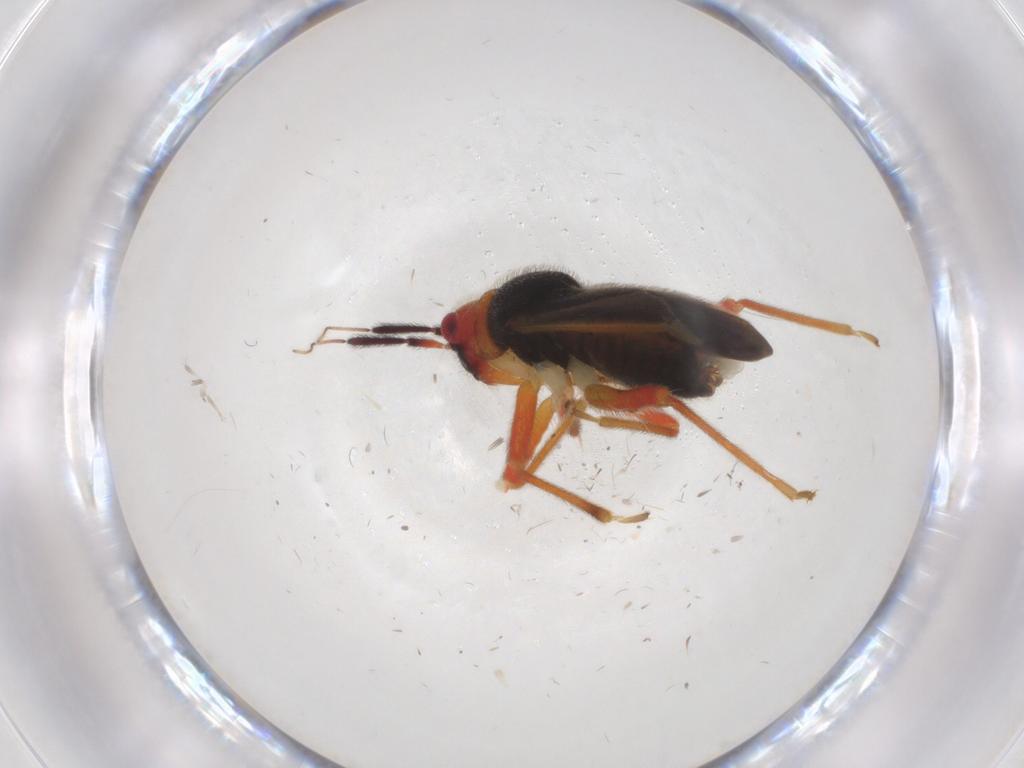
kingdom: Animalia
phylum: Arthropoda
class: Insecta
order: Hemiptera
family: Miridae
